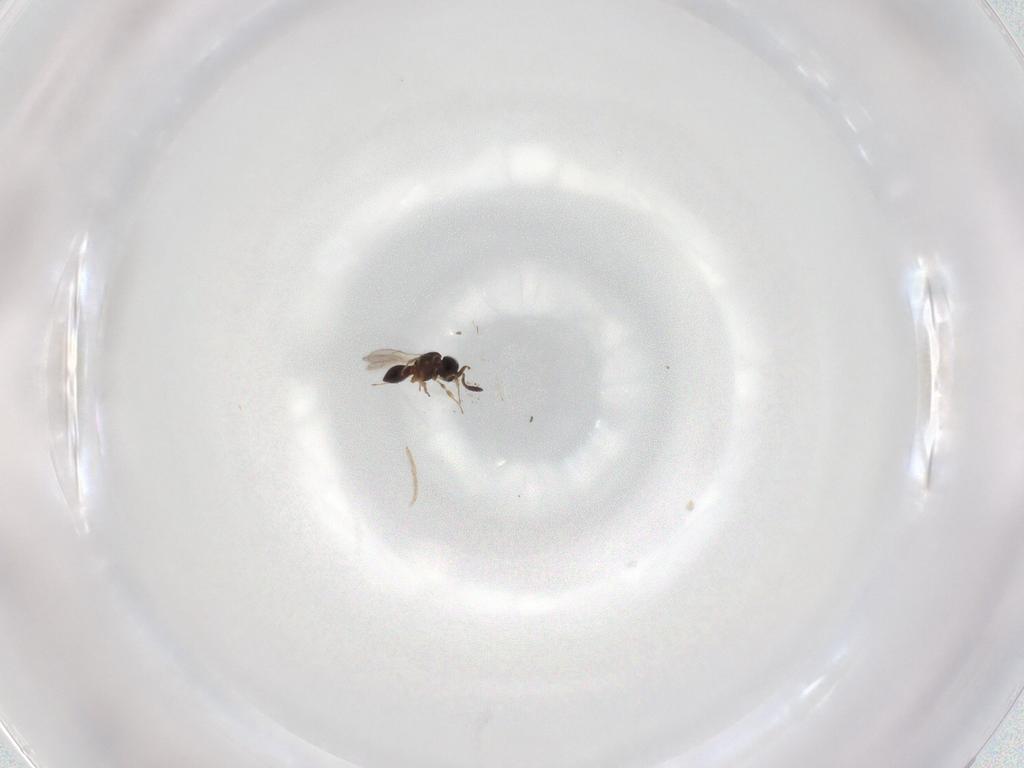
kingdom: Animalia
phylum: Arthropoda
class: Insecta
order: Hymenoptera
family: Scelionidae
